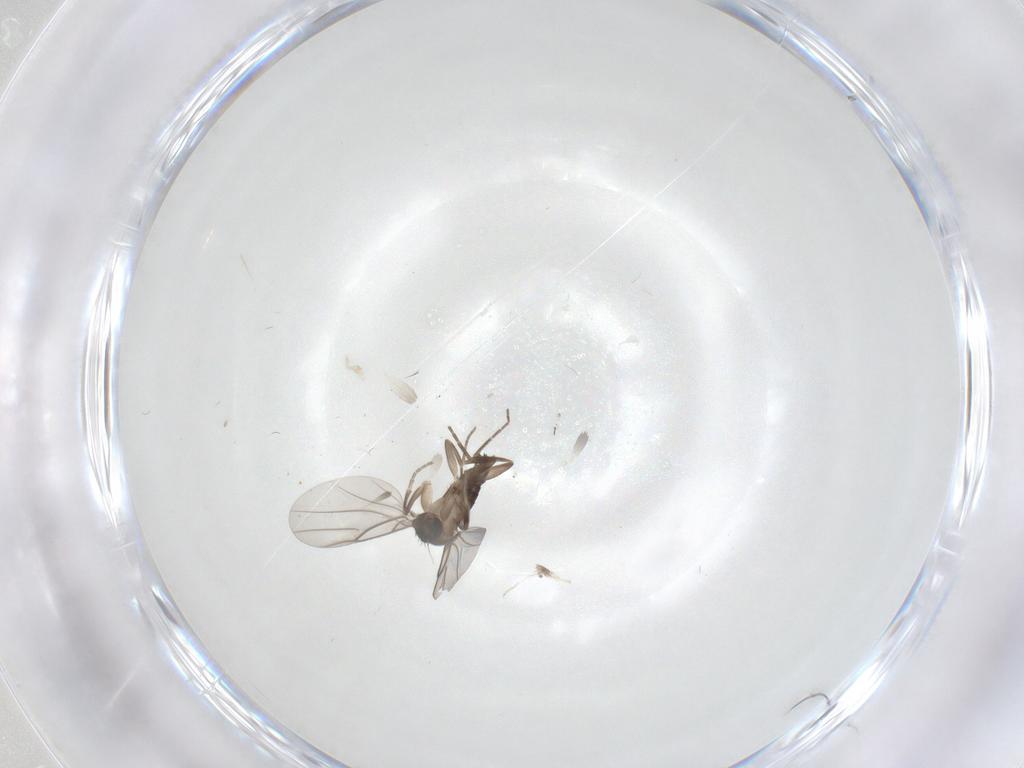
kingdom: Animalia
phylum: Arthropoda
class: Insecta
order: Diptera
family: Phoridae
